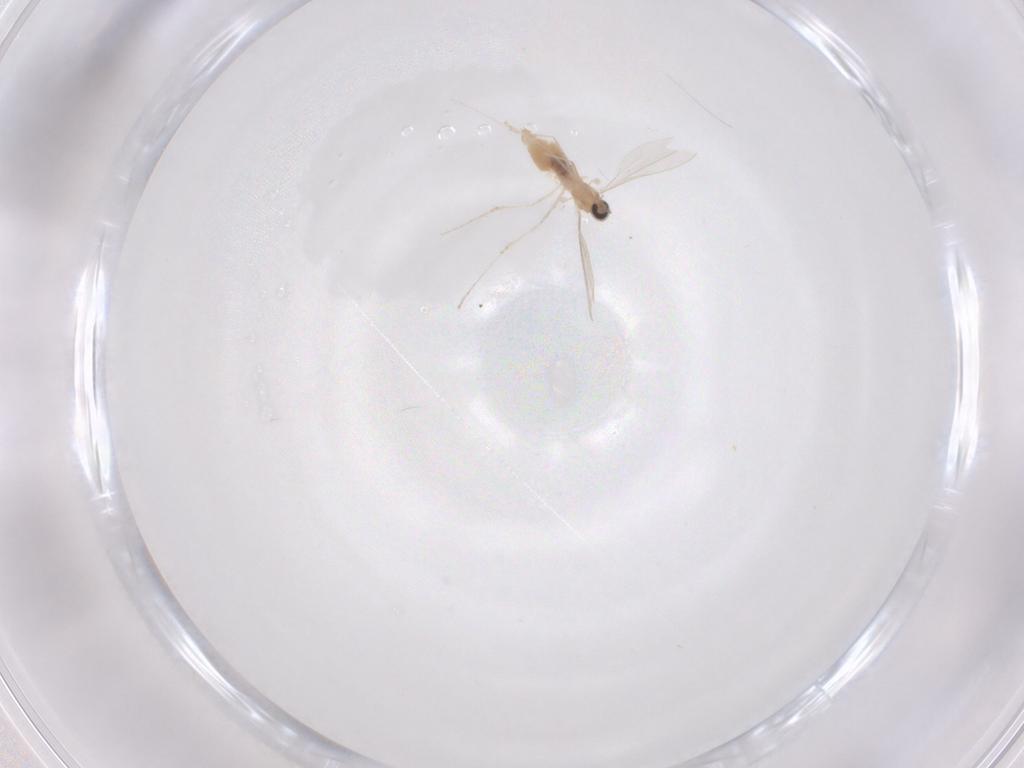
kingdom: Animalia
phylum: Arthropoda
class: Insecta
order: Diptera
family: Cecidomyiidae
